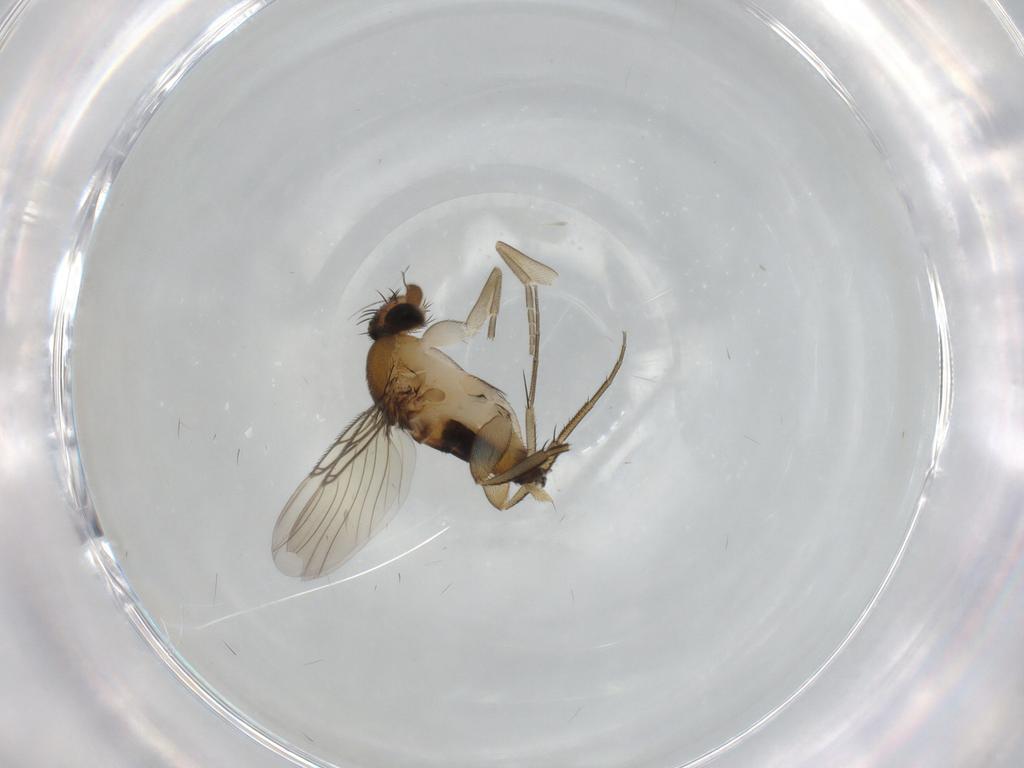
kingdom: Animalia
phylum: Arthropoda
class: Insecta
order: Diptera
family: Phoridae
